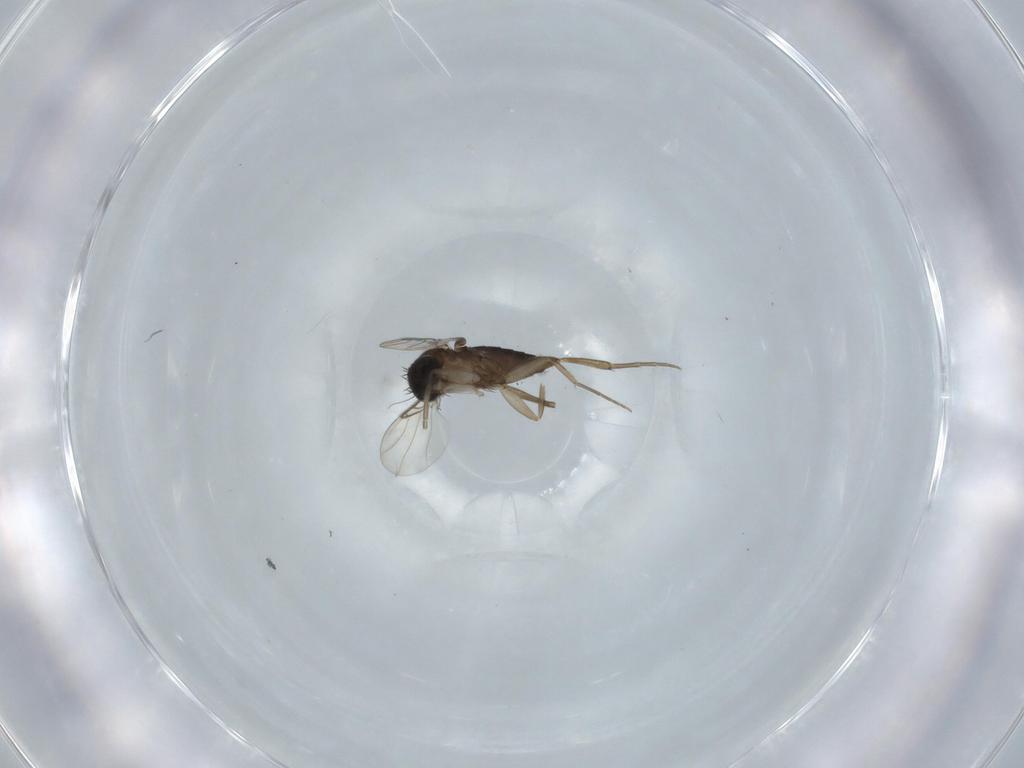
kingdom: Animalia
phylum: Arthropoda
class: Insecta
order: Diptera
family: Phoridae
